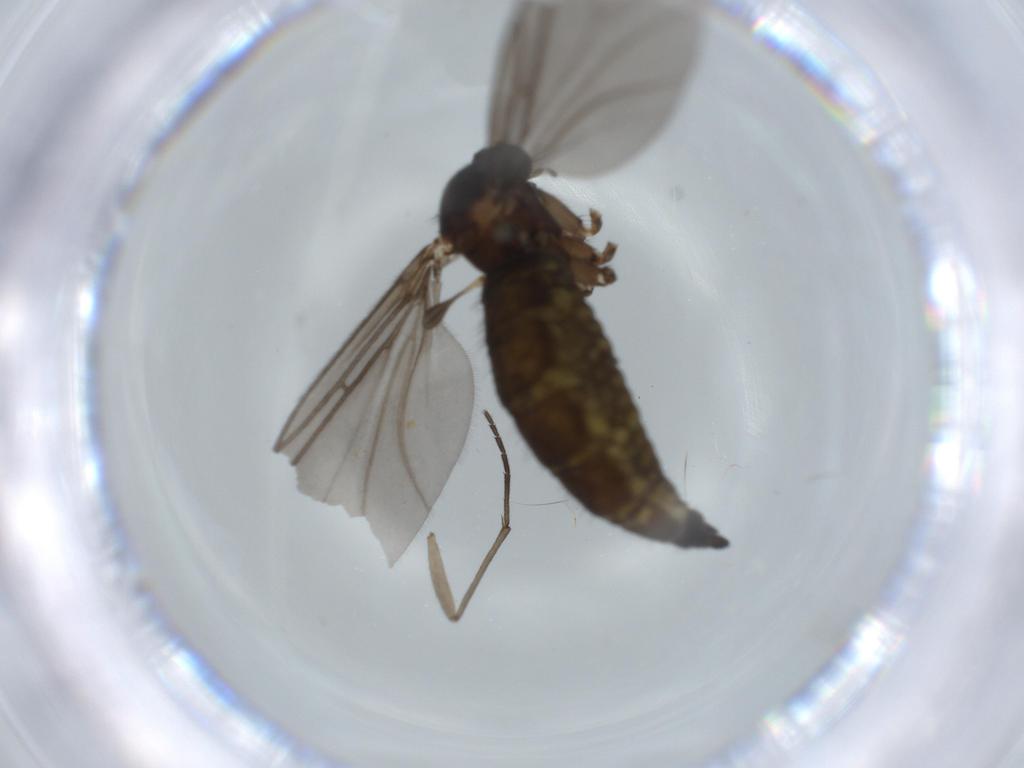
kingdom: Animalia
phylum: Arthropoda
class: Insecta
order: Diptera
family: Sciaridae
